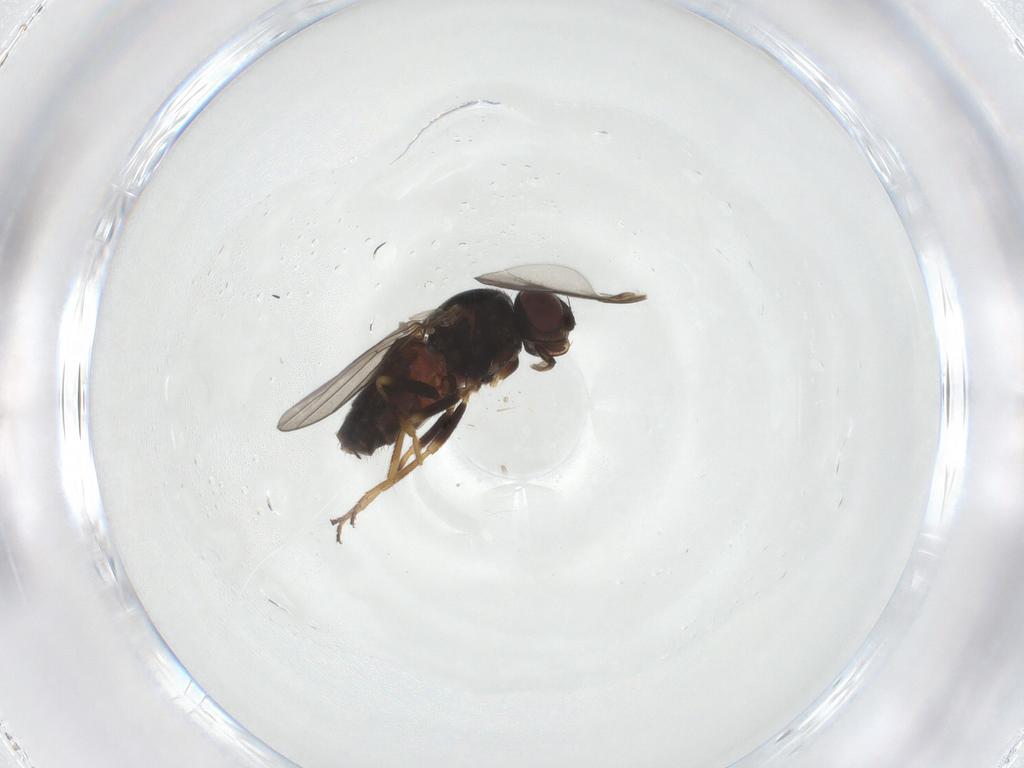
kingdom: Animalia
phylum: Arthropoda
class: Insecta
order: Diptera
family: Chloropidae
